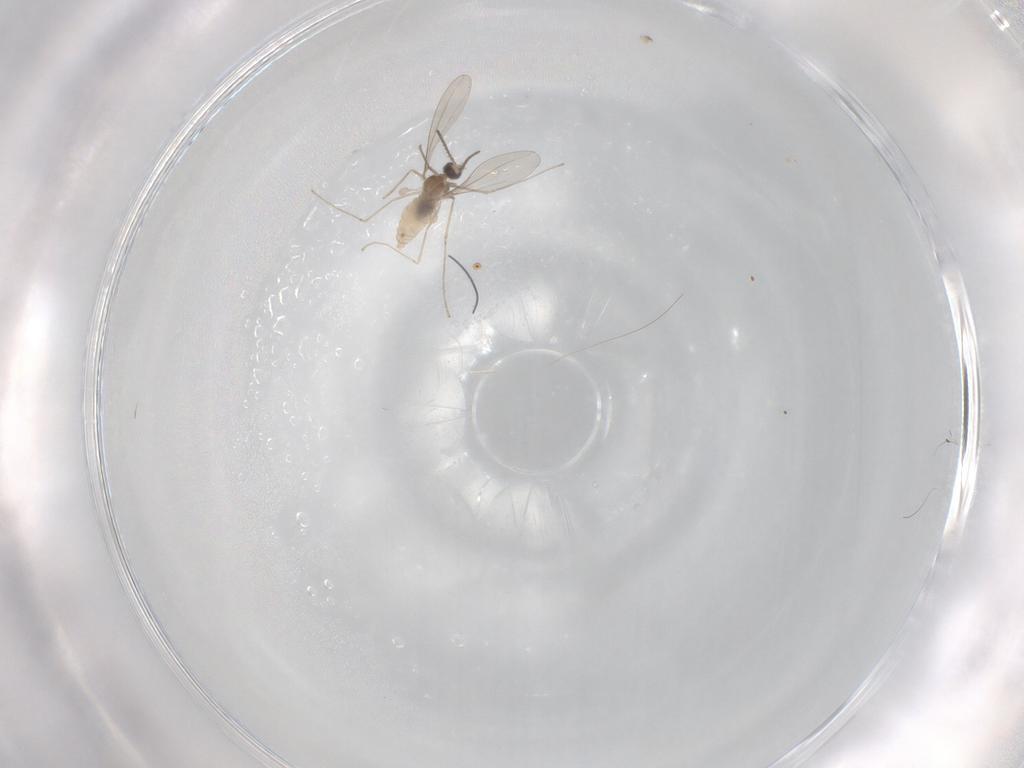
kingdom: Animalia
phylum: Arthropoda
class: Insecta
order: Diptera
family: Cecidomyiidae
